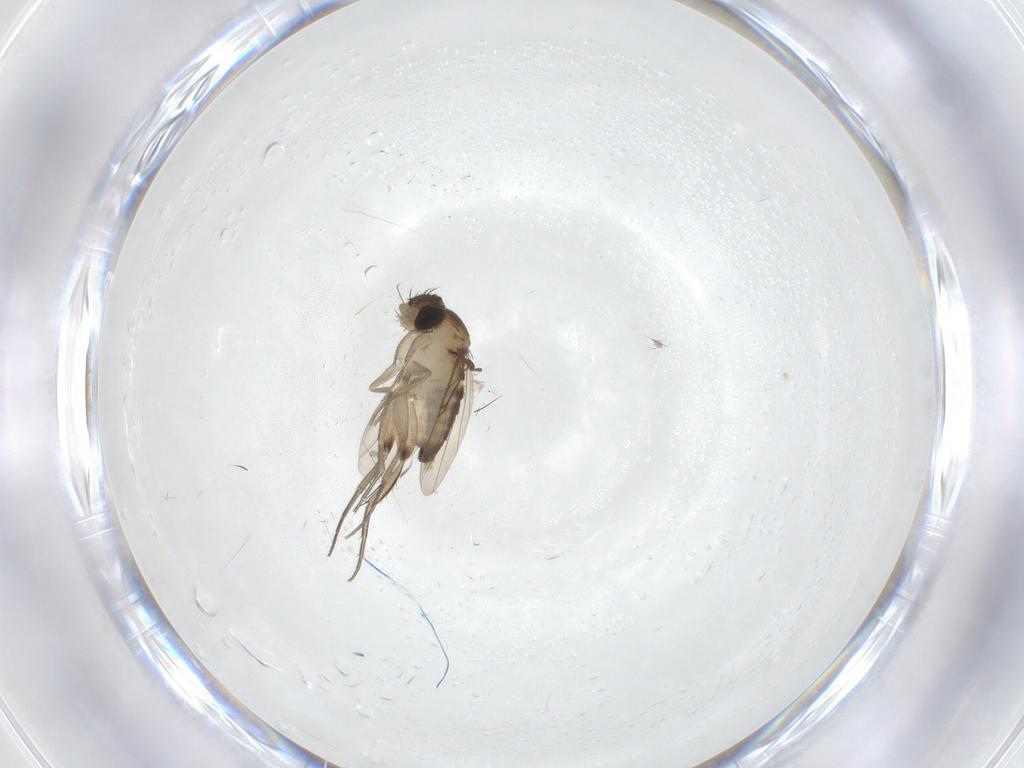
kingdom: Animalia
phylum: Arthropoda
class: Insecta
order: Diptera
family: Phoridae
